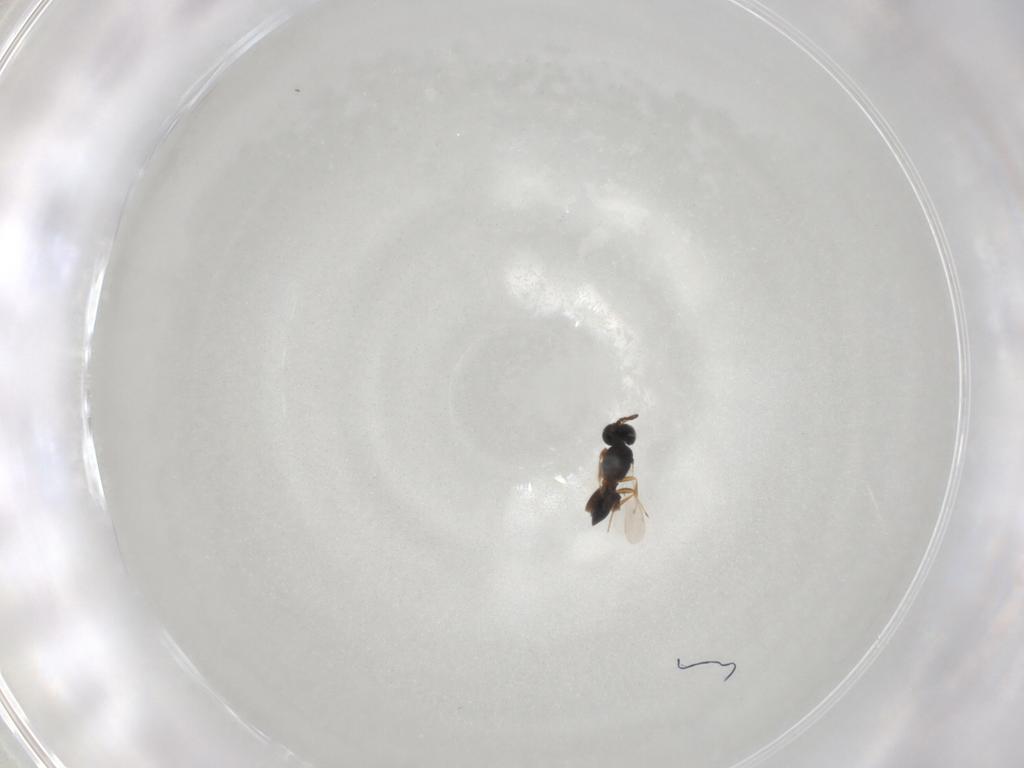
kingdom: Animalia
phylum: Arthropoda
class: Insecta
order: Hymenoptera
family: Scelionidae
